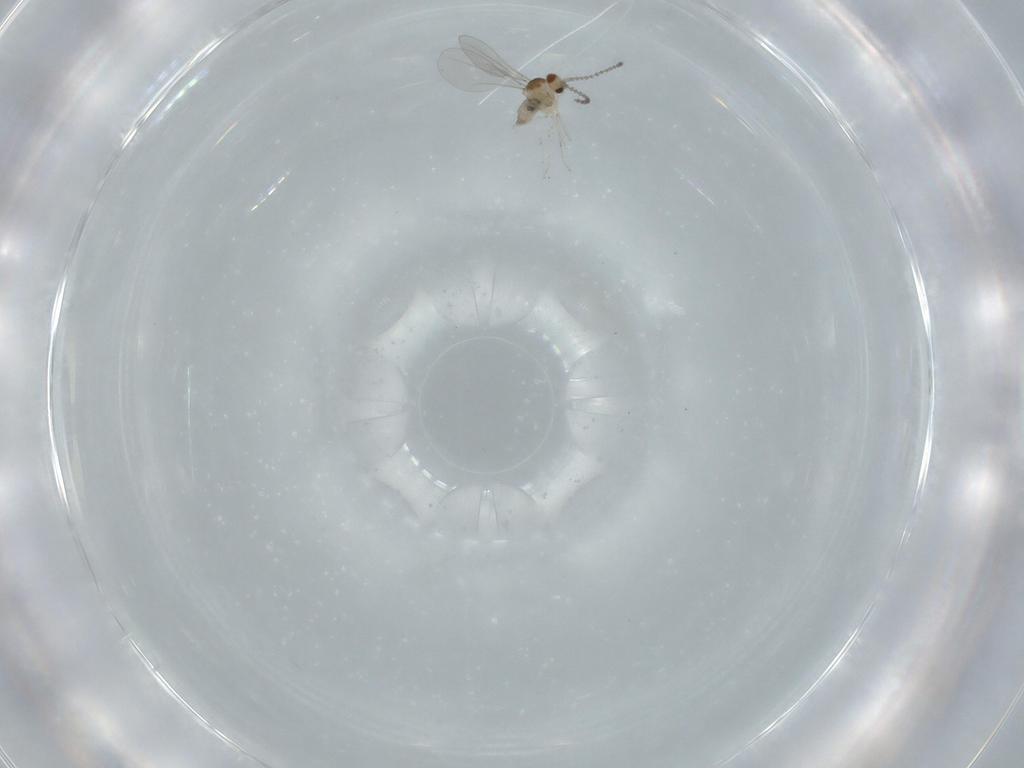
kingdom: Animalia
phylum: Arthropoda
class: Insecta
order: Diptera
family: Cecidomyiidae
